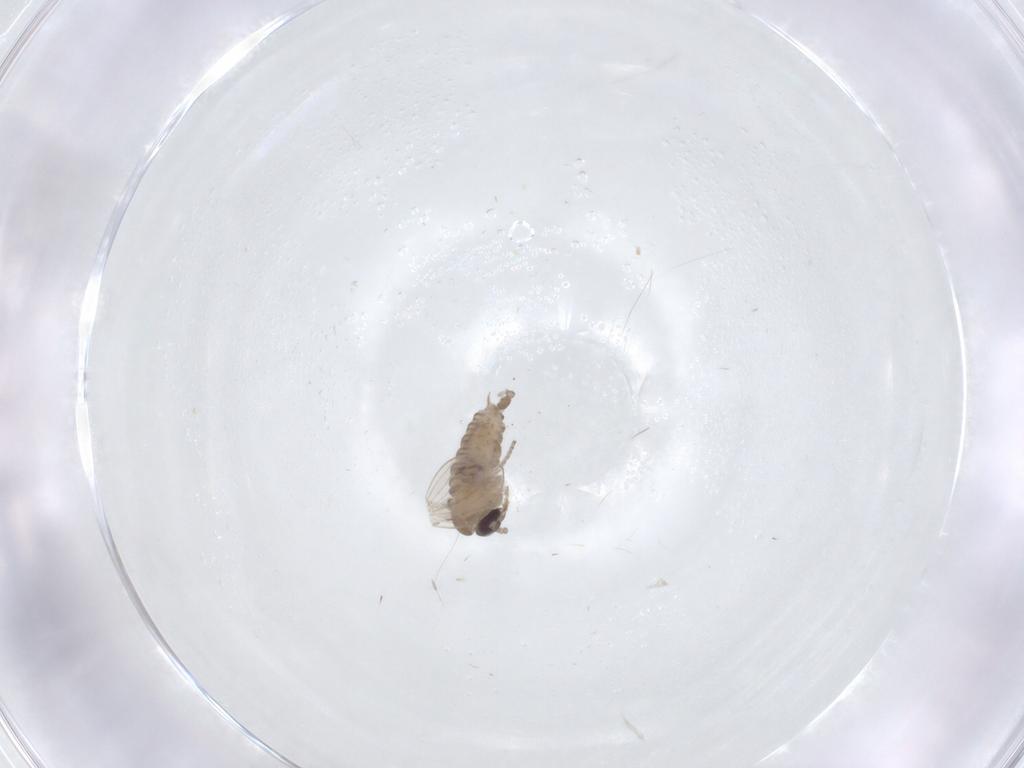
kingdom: Animalia
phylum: Arthropoda
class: Insecta
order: Diptera
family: Psychodidae
